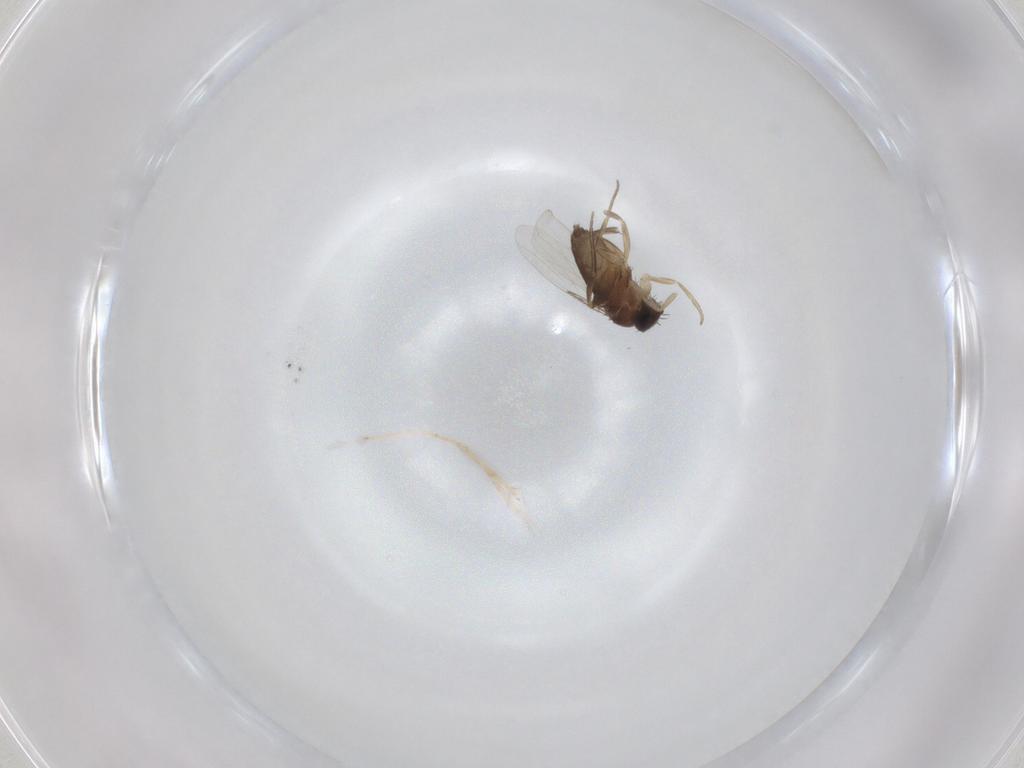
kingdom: Animalia
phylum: Arthropoda
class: Insecta
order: Diptera
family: Phoridae
